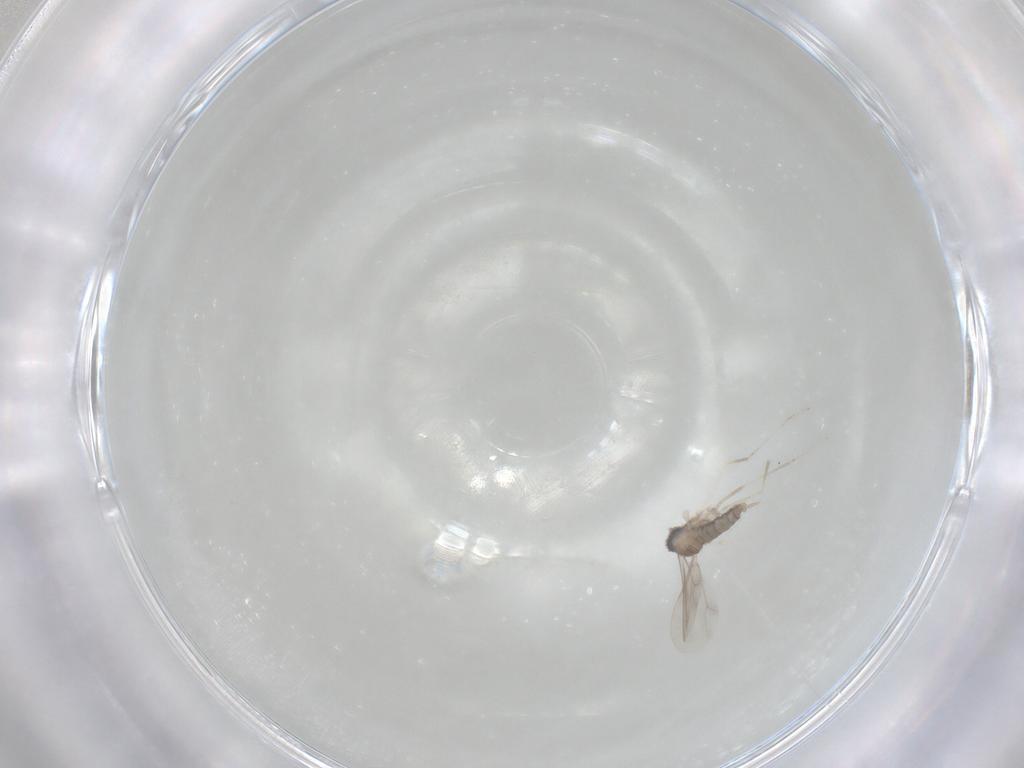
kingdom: Animalia
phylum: Arthropoda
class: Insecta
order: Diptera
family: Cecidomyiidae
